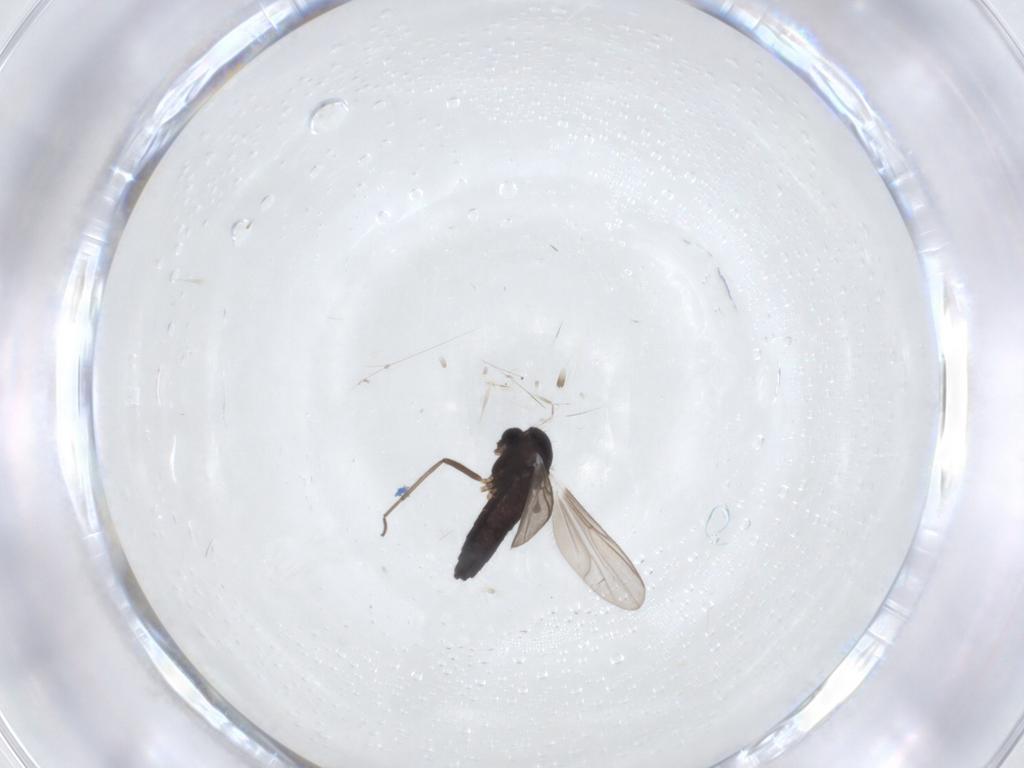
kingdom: Animalia
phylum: Arthropoda
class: Insecta
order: Diptera
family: Chironomidae
